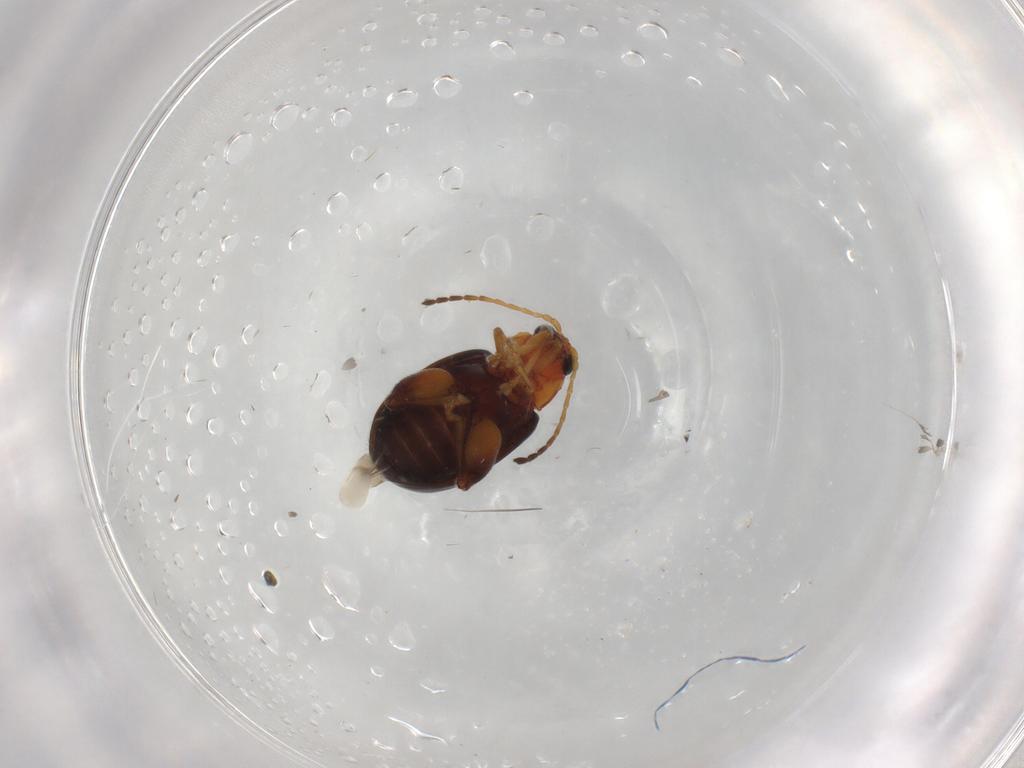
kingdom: Animalia
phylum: Arthropoda
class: Insecta
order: Coleoptera
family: Chrysomelidae
